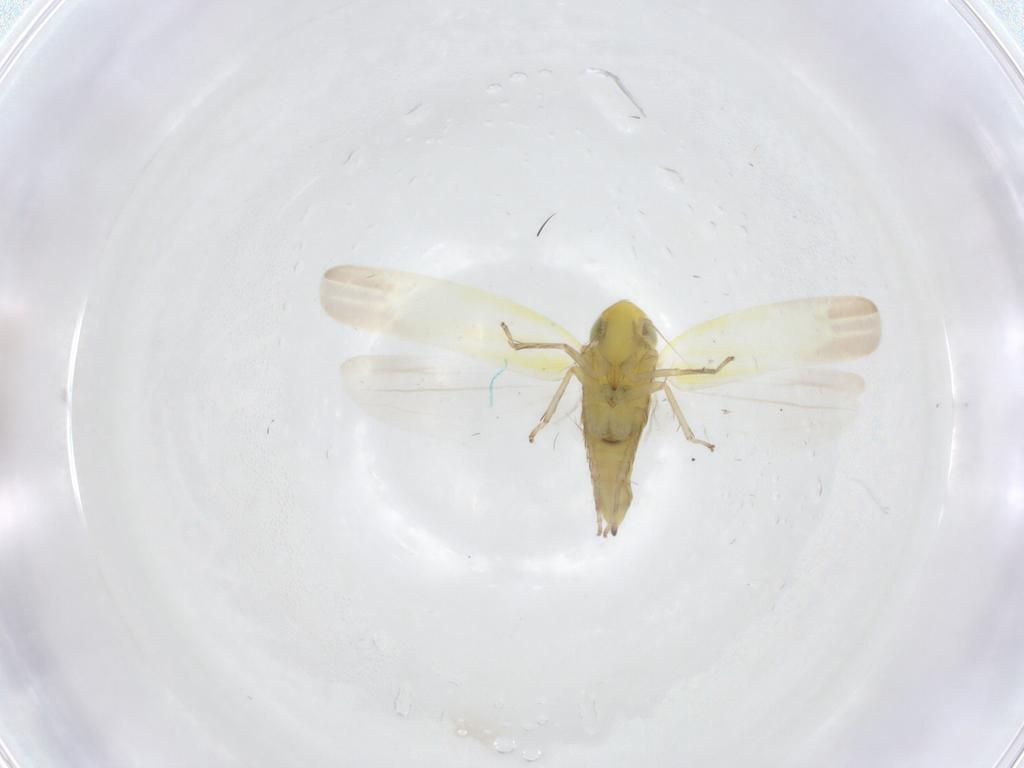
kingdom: Animalia
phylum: Arthropoda
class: Insecta
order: Hemiptera
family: Cicadellidae
